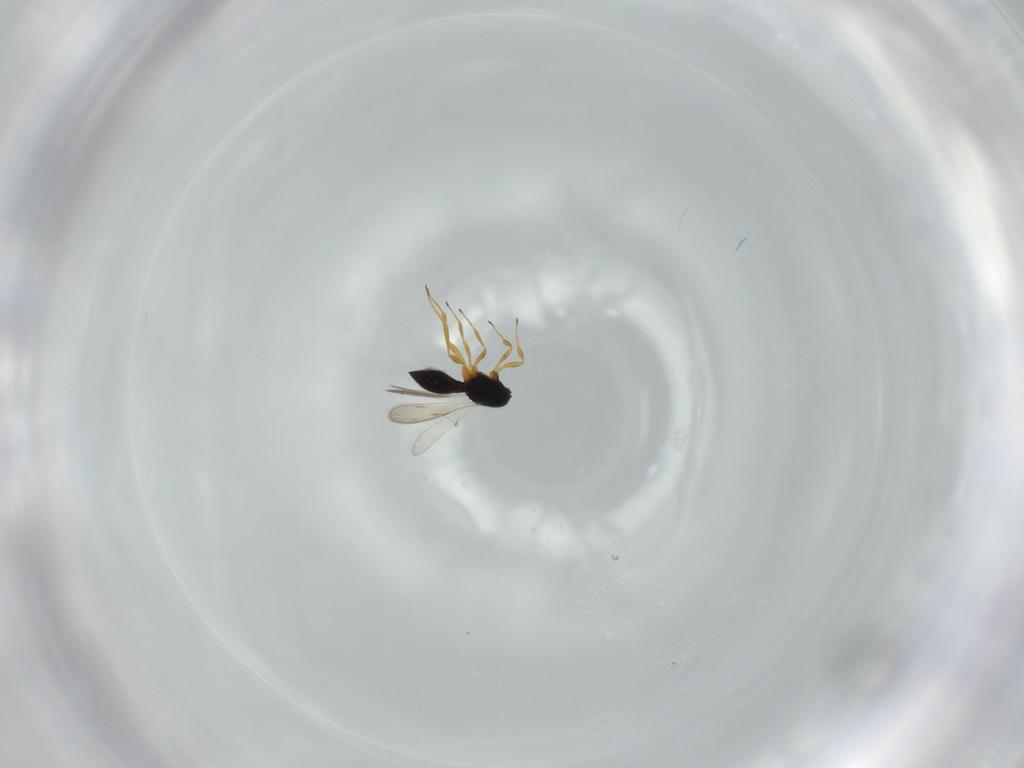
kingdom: Animalia
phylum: Arthropoda
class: Insecta
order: Hymenoptera
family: Scelionidae
